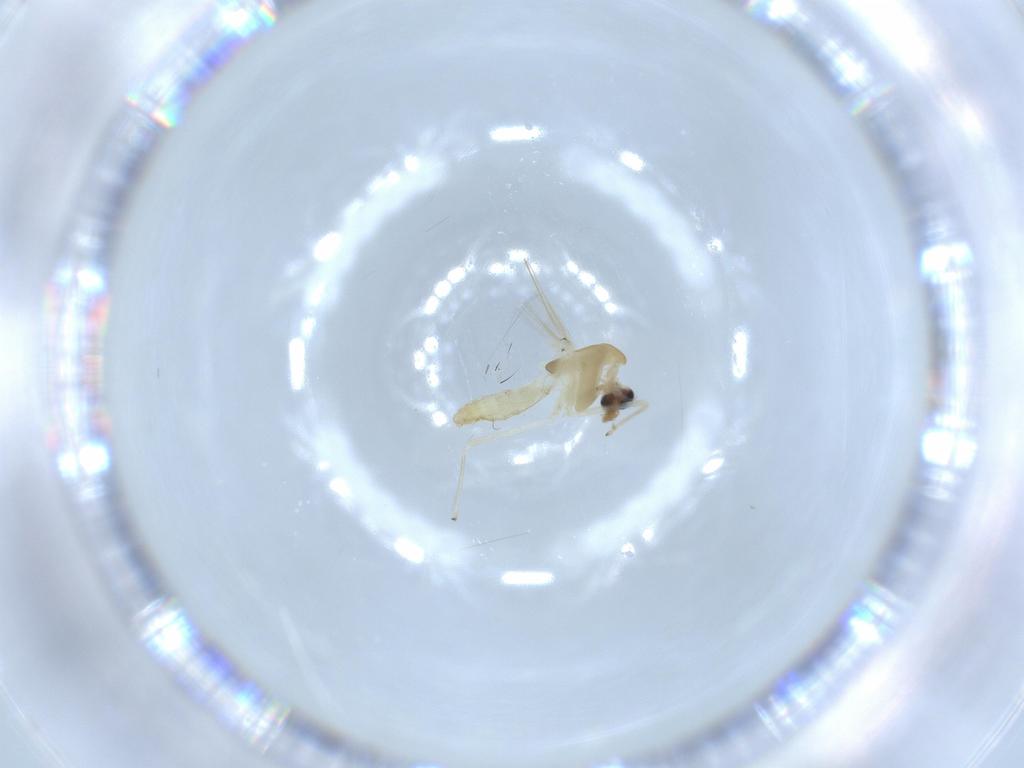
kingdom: Animalia
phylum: Arthropoda
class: Insecta
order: Diptera
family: Chironomidae
